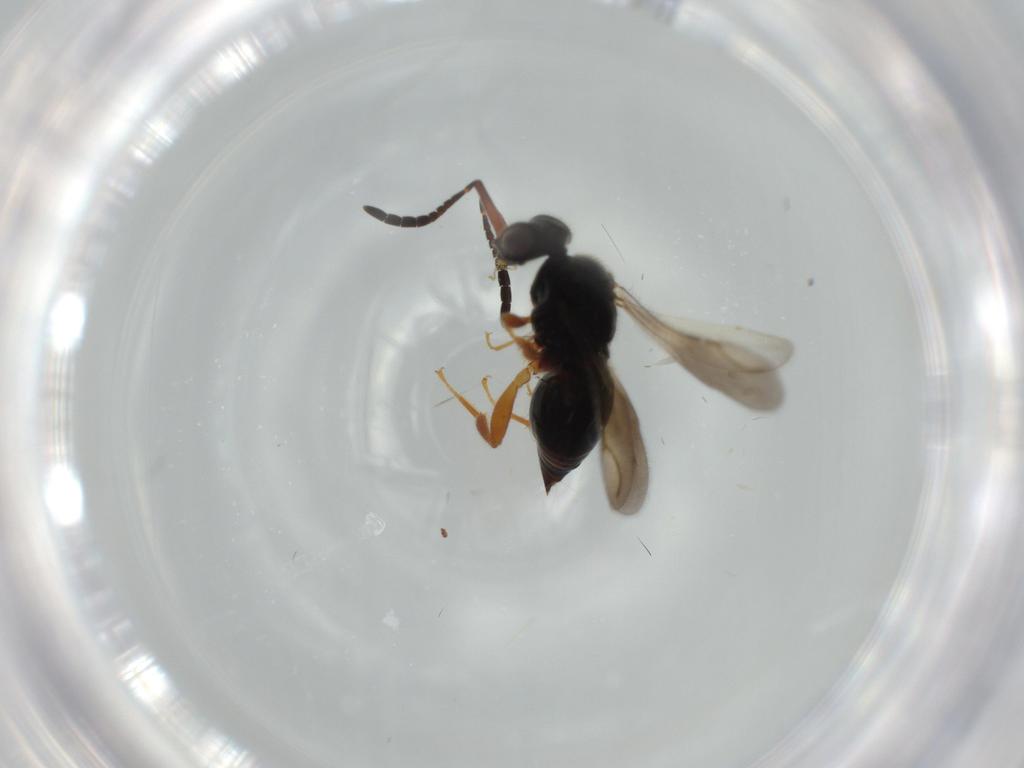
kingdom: Animalia
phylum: Arthropoda
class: Insecta
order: Hymenoptera
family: Ceraphronidae
